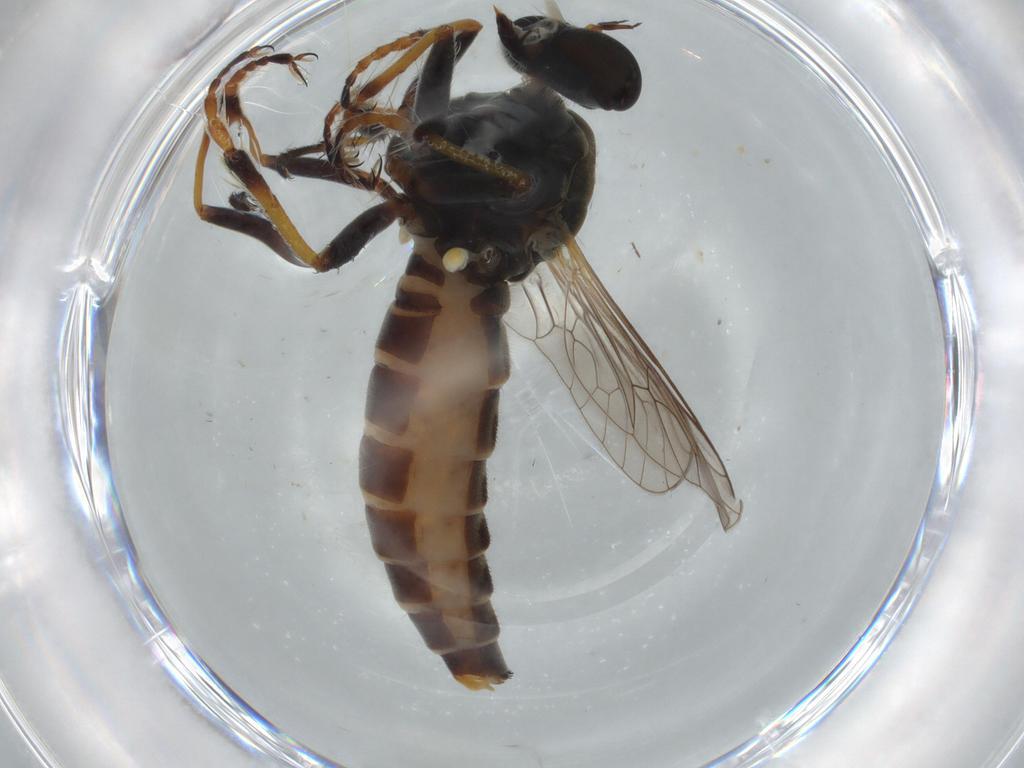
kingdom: Animalia
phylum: Arthropoda
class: Insecta
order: Diptera
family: Asilidae
